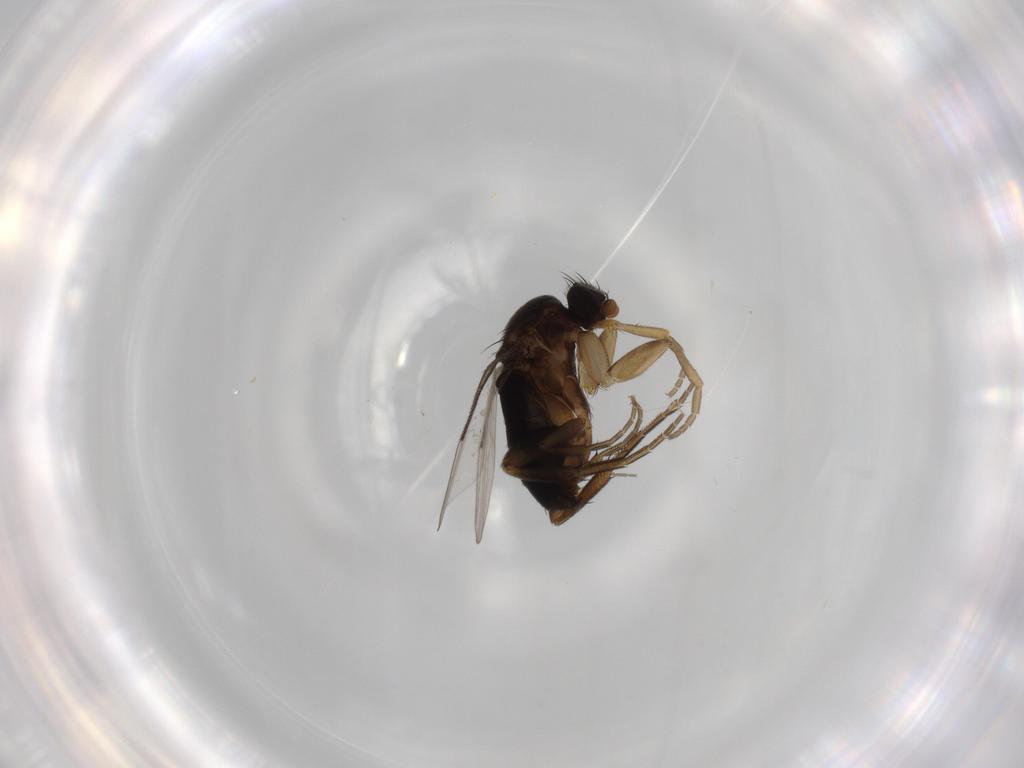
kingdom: Animalia
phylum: Arthropoda
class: Insecta
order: Diptera
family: Phoridae
